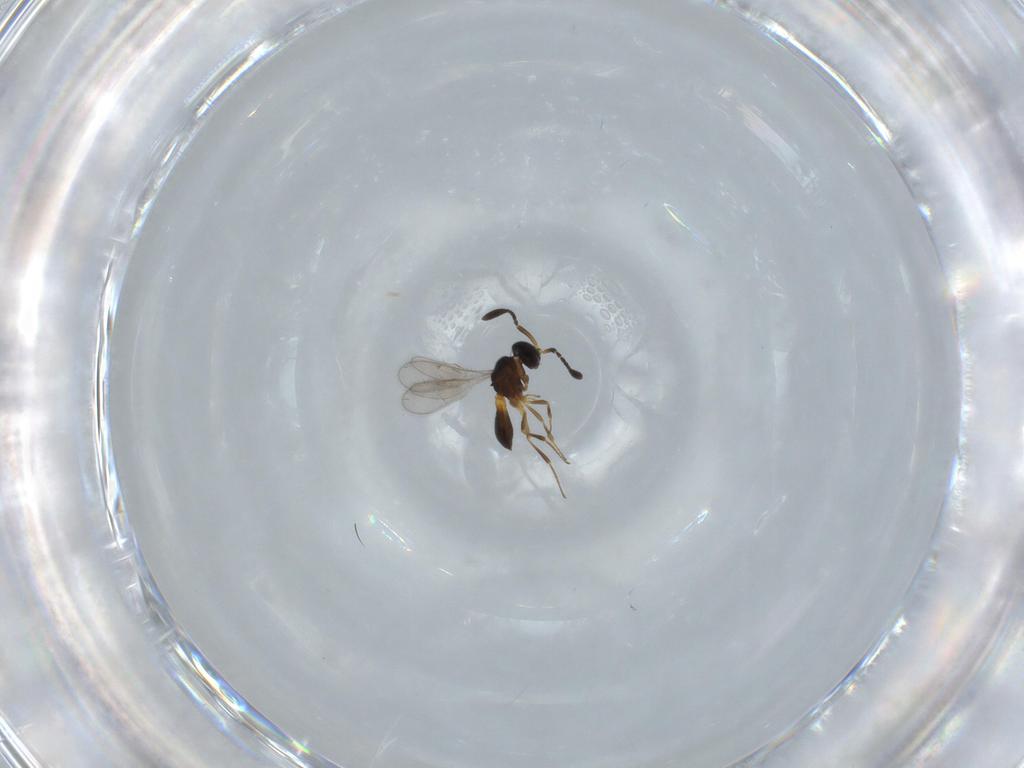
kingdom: Animalia
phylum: Arthropoda
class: Insecta
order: Hymenoptera
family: Scelionidae
